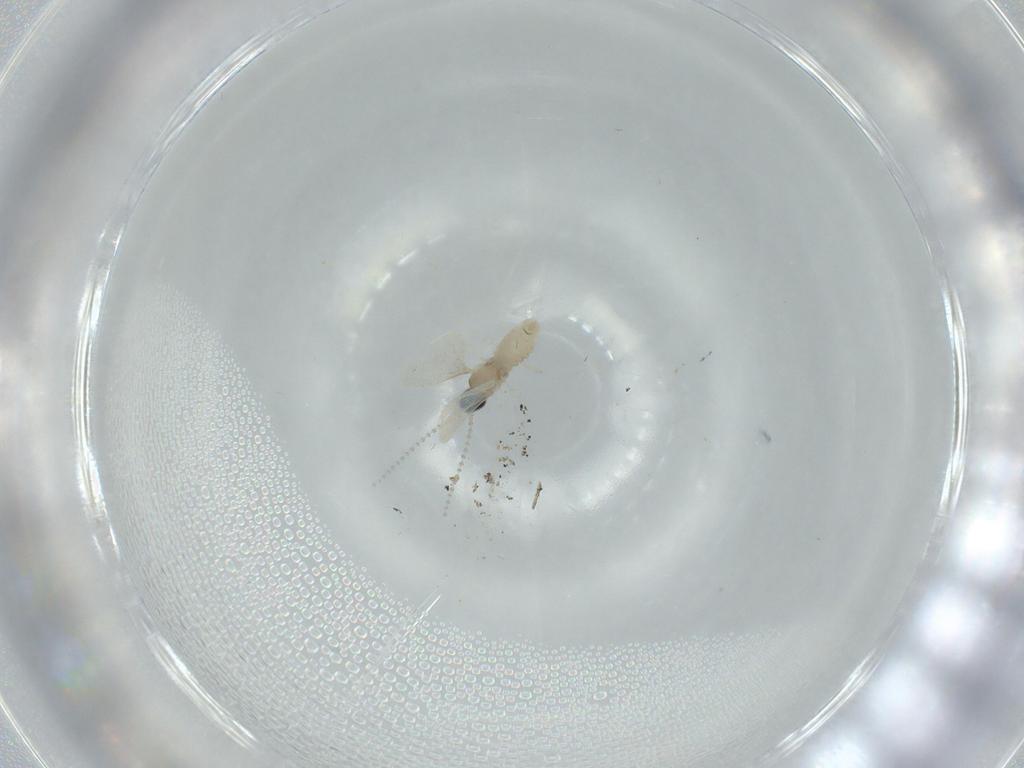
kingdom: Animalia
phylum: Arthropoda
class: Insecta
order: Diptera
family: Cecidomyiidae
